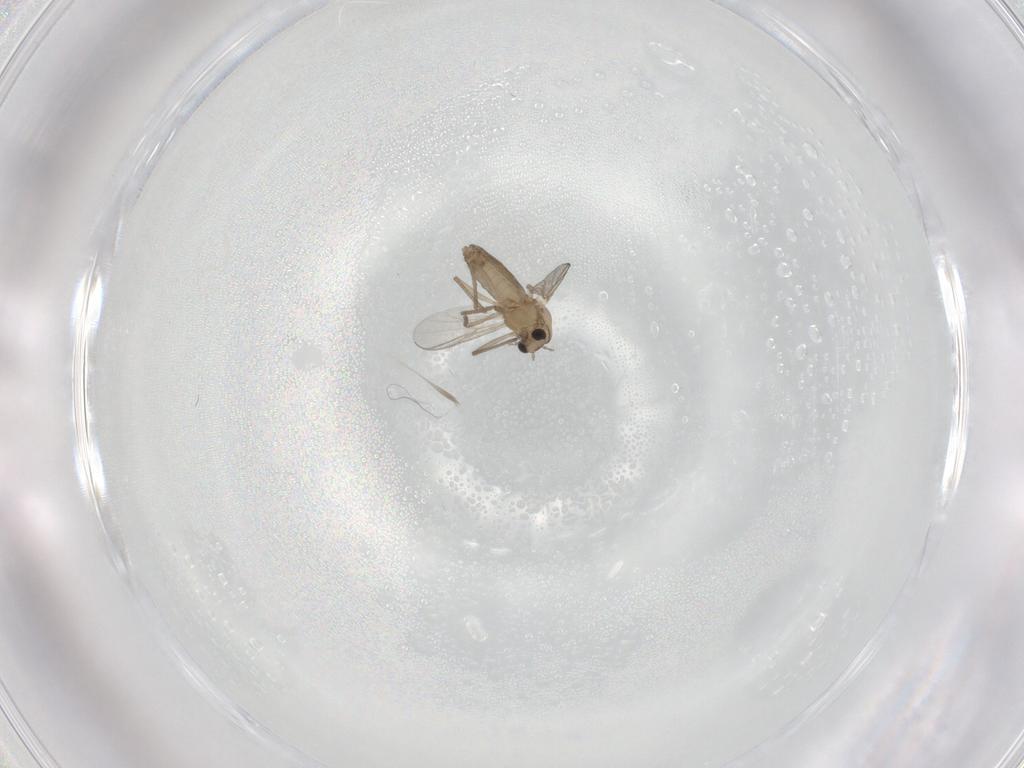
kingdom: Animalia
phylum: Arthropoda
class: Insecta
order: Diptera
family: Chironomidae
